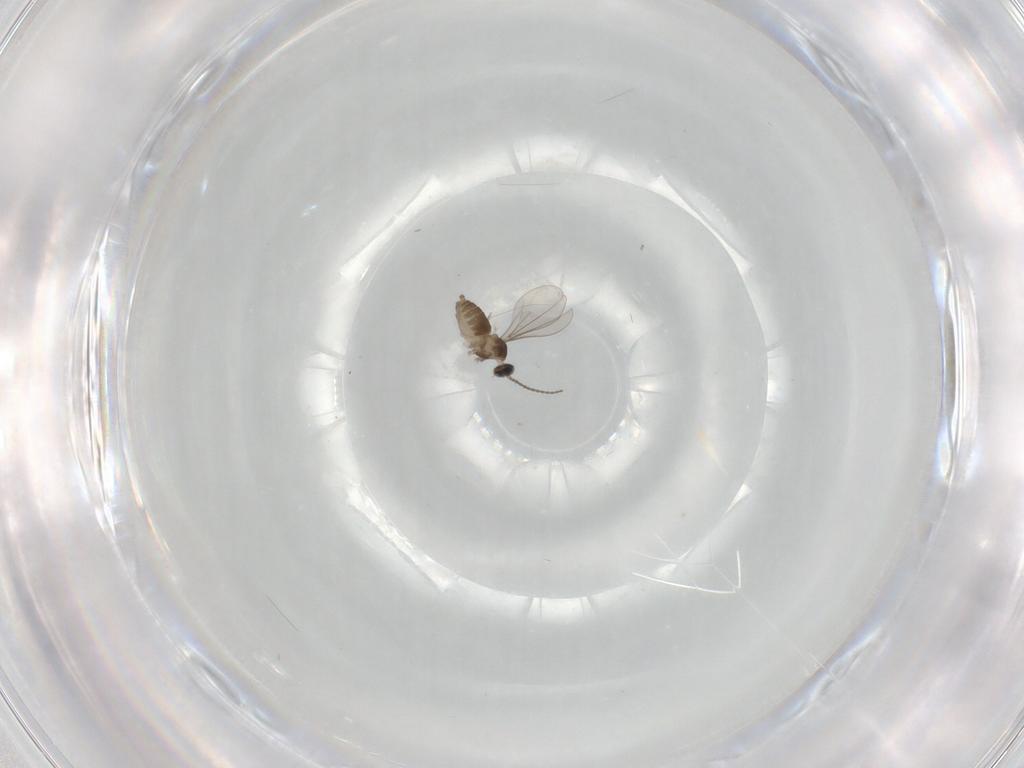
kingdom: Animalia
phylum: Arthropoda
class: Insecta
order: Diptera
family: Cecidomyiidae
